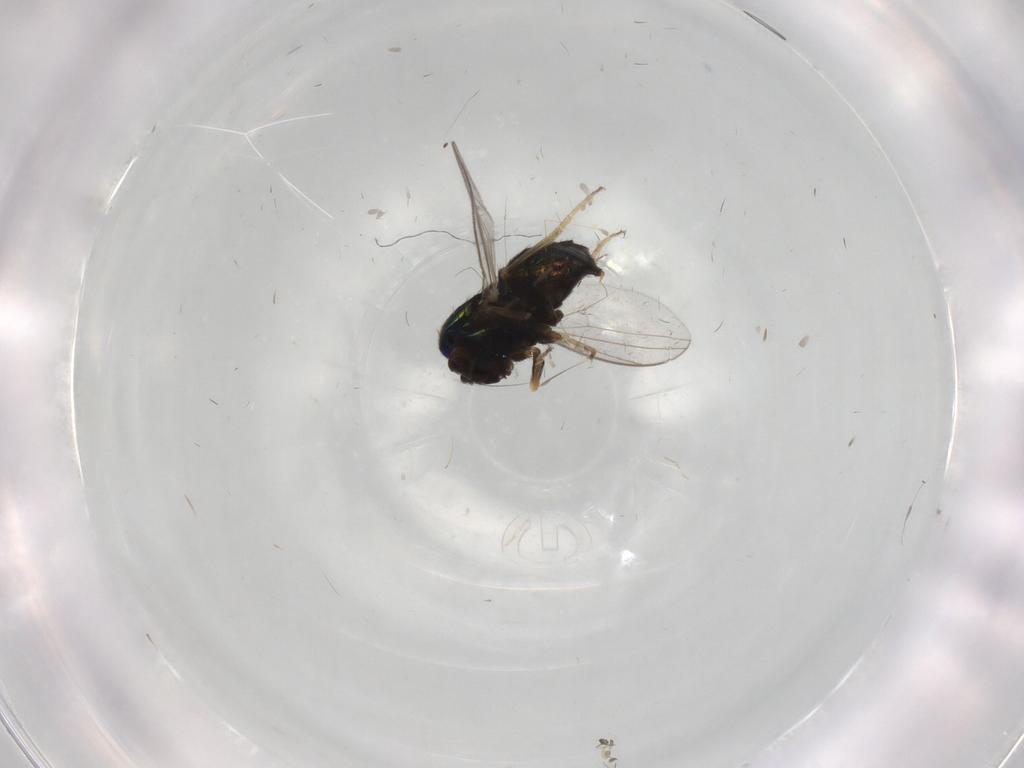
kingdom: Animalia
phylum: Arthropoda
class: Insecta
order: Diptera
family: Dolichopodidae
